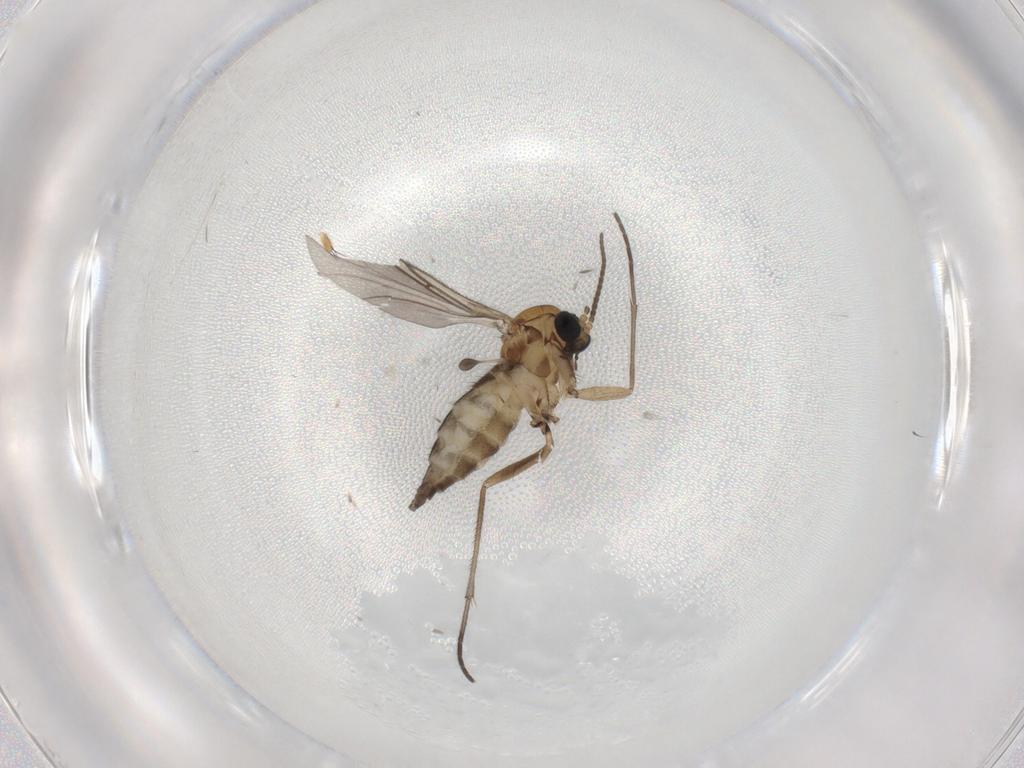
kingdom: Animalia
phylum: Arthropoda
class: Insecta
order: Diptera
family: Sciaridae
